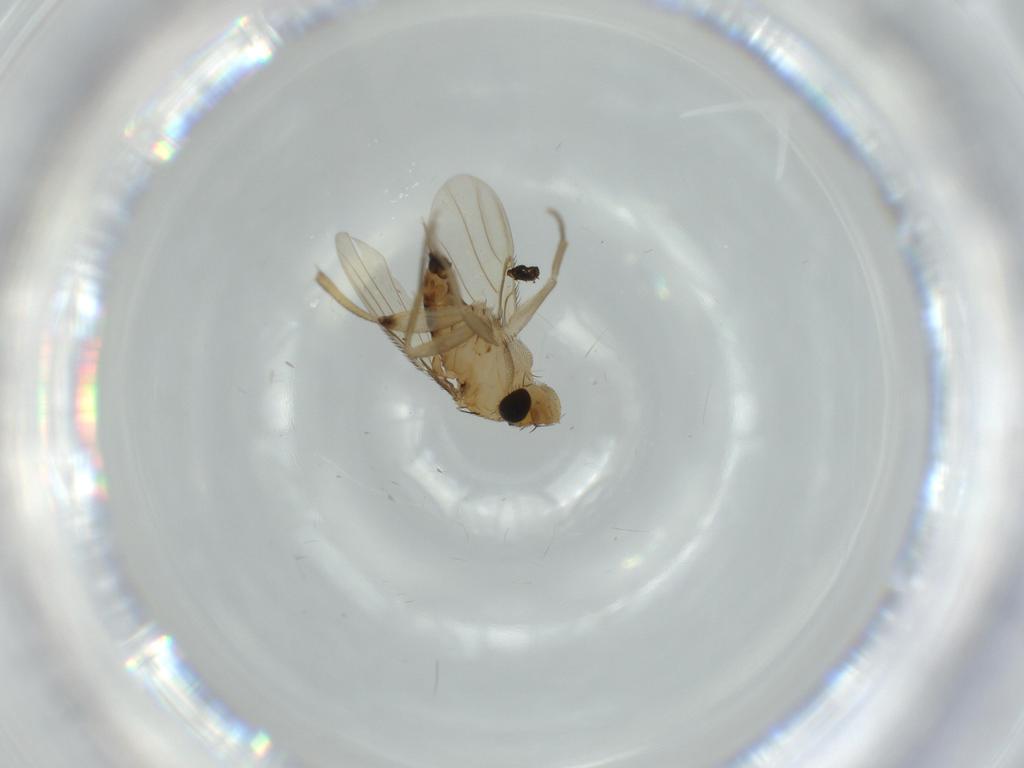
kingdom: Animalia
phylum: Arthropoda
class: Insecta
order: Diptera
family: Phoridae
